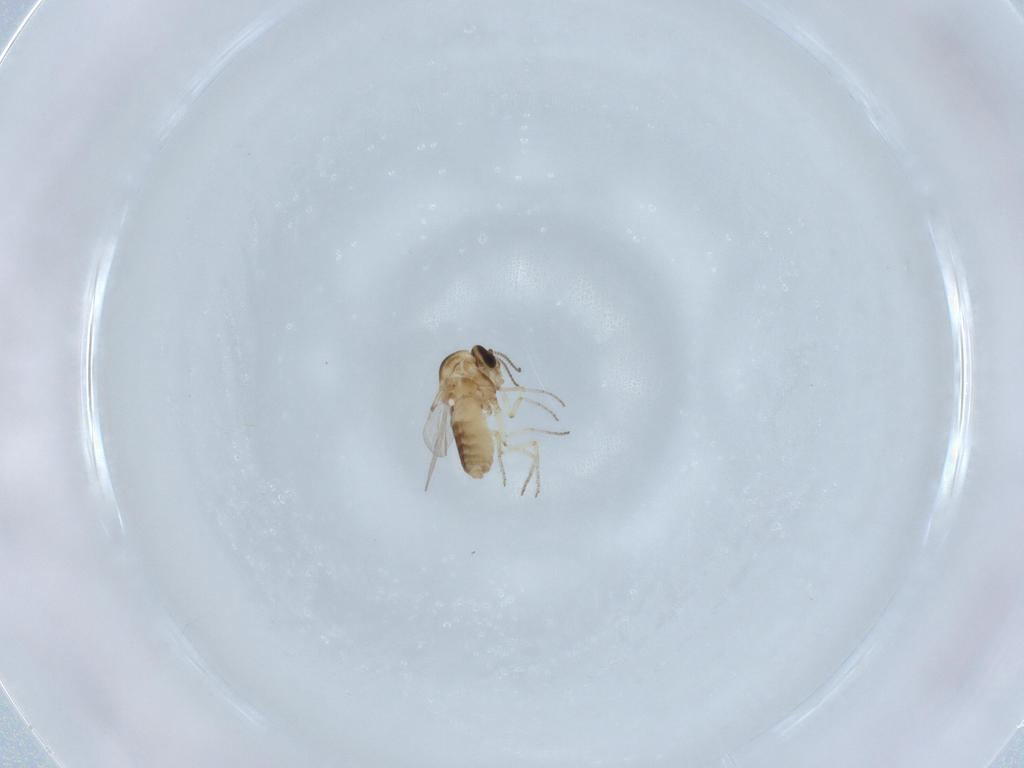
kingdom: Animalia
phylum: Arthropoda
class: Insecta
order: Diptera
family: Ceratopogonidae
